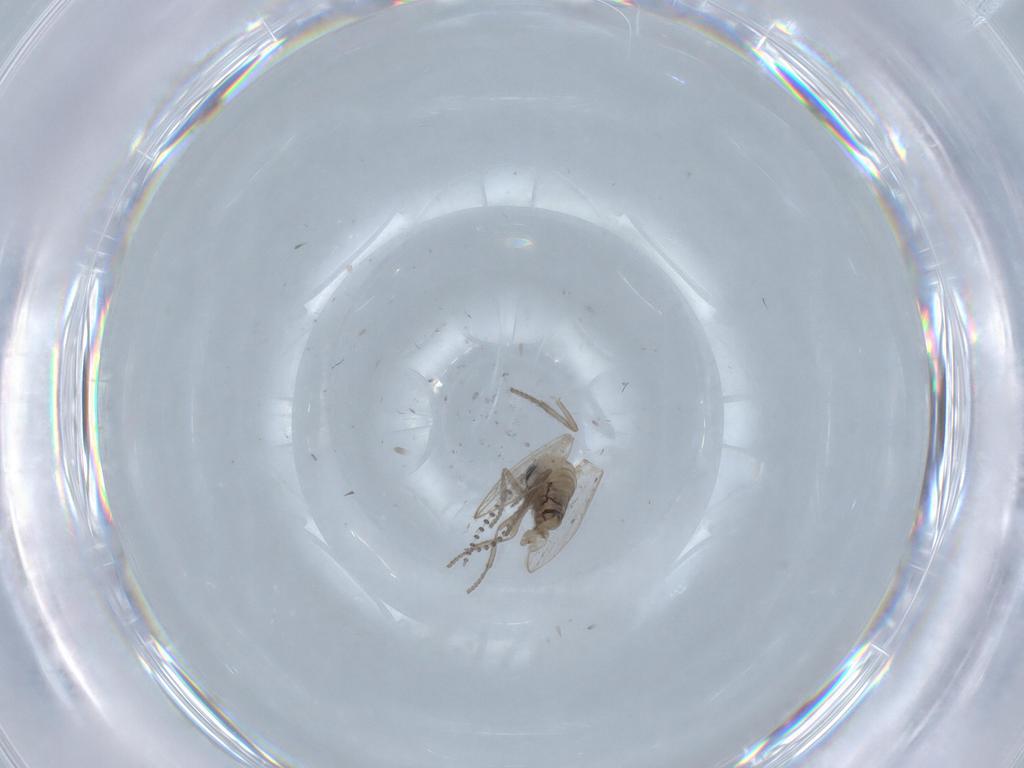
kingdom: Animalia
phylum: Arthropoda
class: Insecta
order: Diptera
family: Psychodidae
